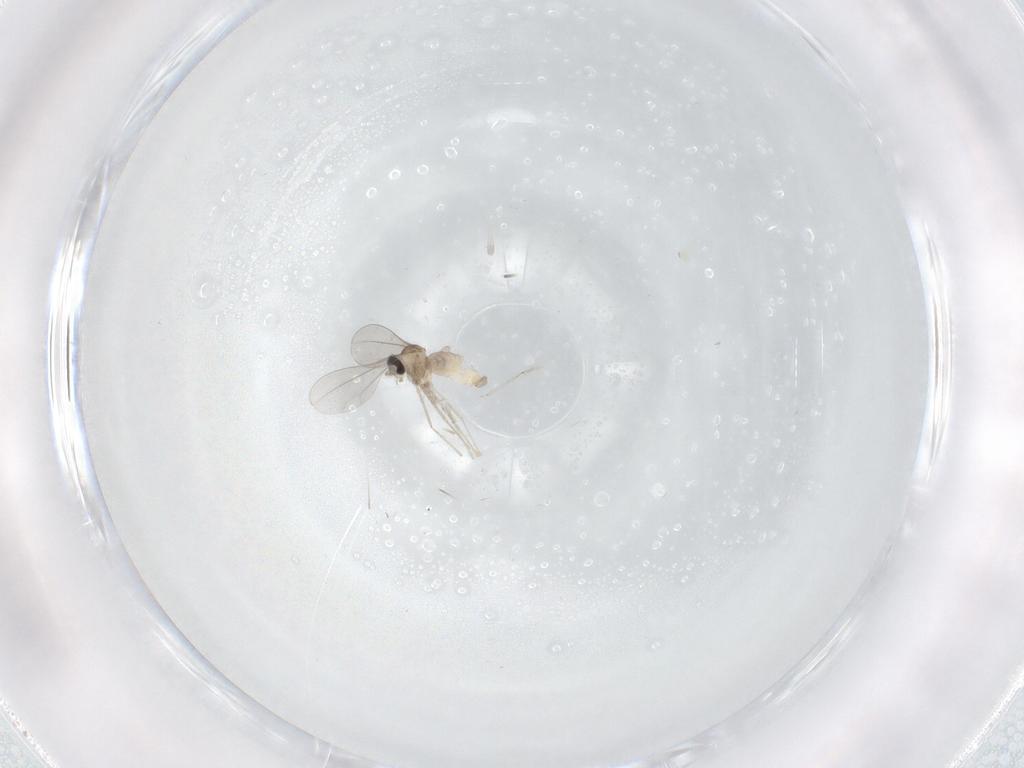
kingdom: Animalia
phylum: Arthropoda
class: Insecta
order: Diptera
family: Cecidomyiidae
